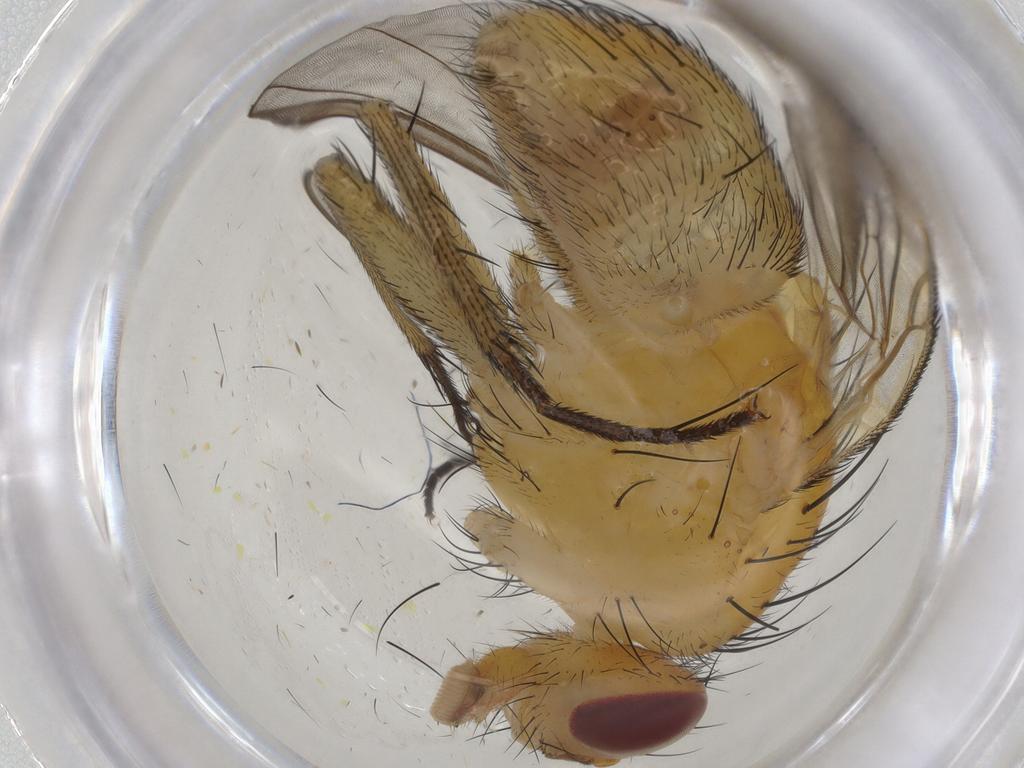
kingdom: Animalia
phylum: Arthropoda
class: Insecta
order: Diptera
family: Muscidae
